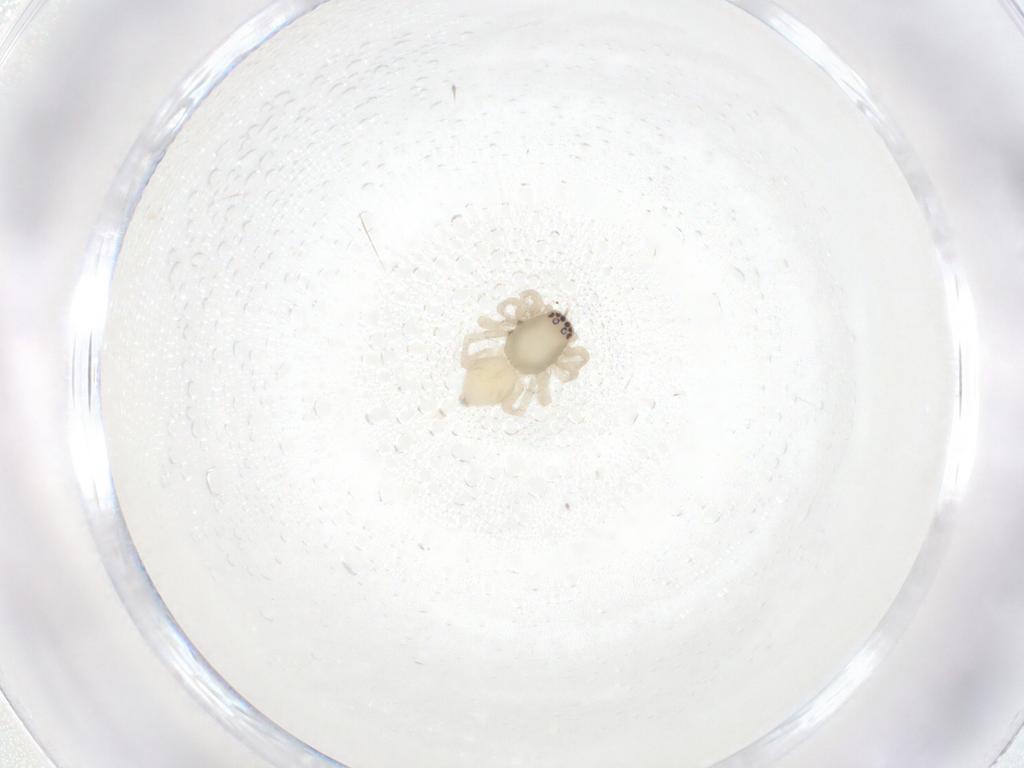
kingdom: Animalia
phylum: Arthropoda
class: Arachnida
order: Araneae
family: Clubionidae
